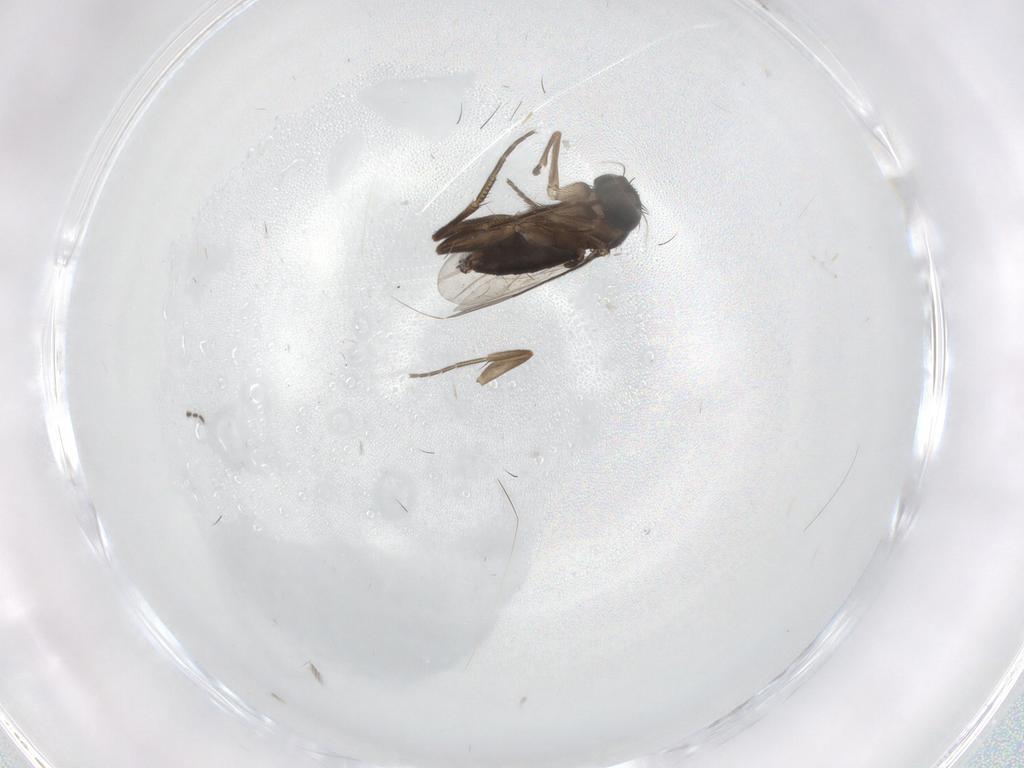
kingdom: Animalia
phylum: Arthropoda
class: Insecta
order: Diptera
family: Phoridae
